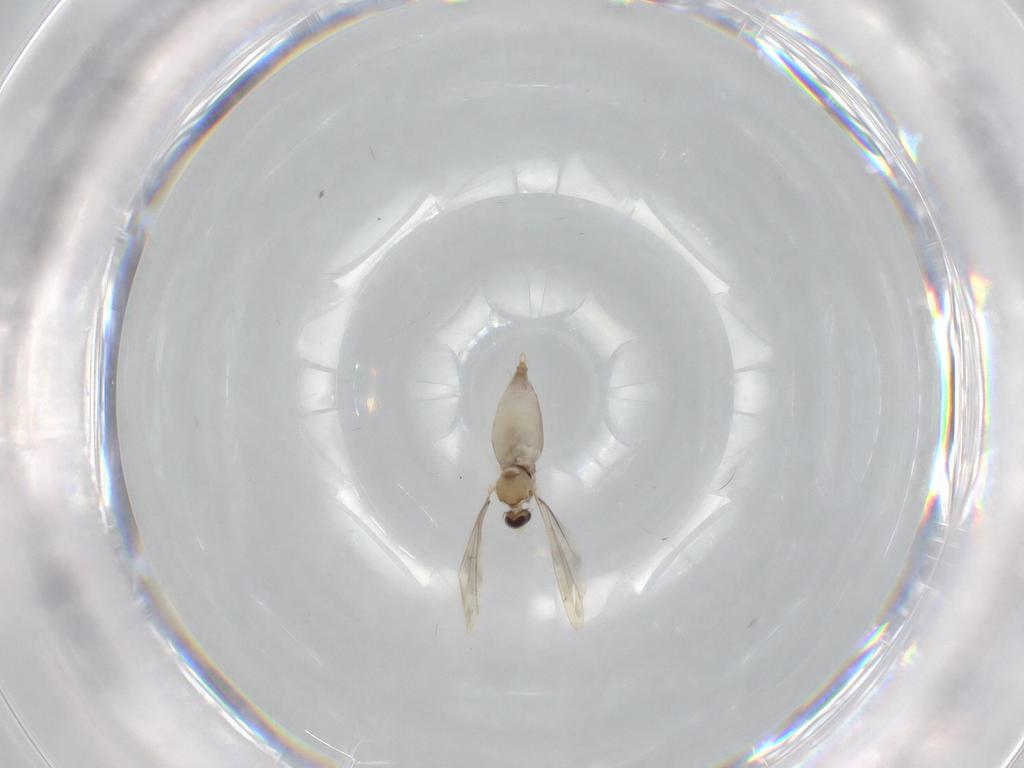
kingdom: Animalia
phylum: Arthropoda
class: Insecta
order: Diptera
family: Cecidomyiidae
